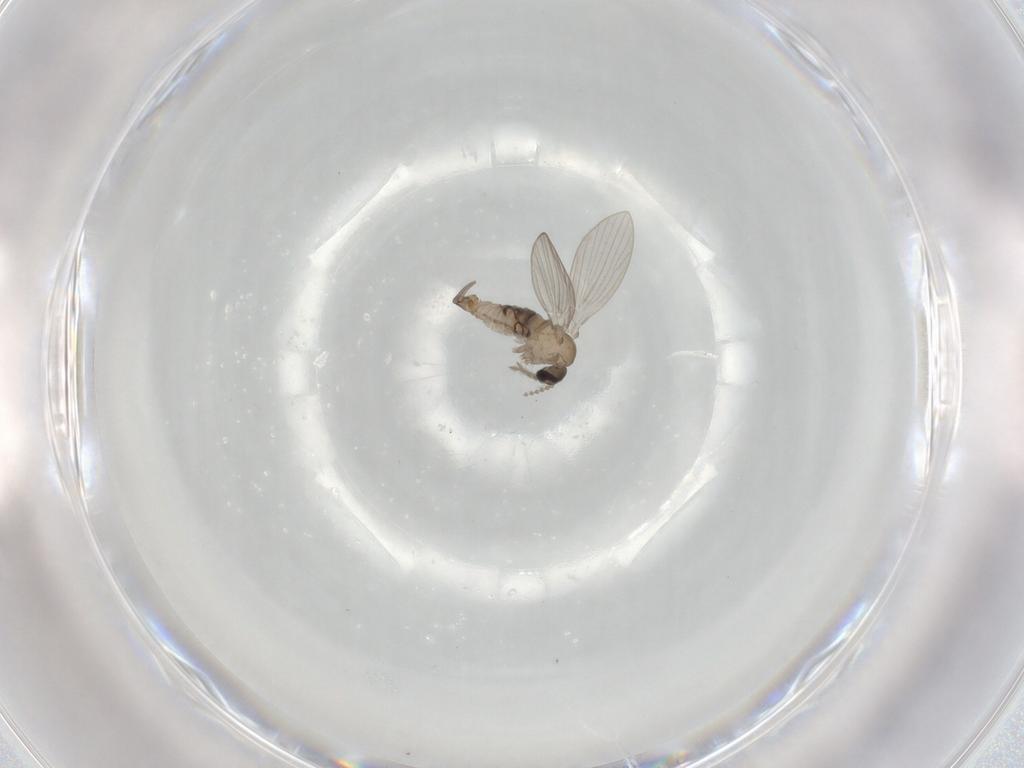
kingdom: Animalia
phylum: Arthropoda
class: Insecta
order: Diptera
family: Psychodidae
